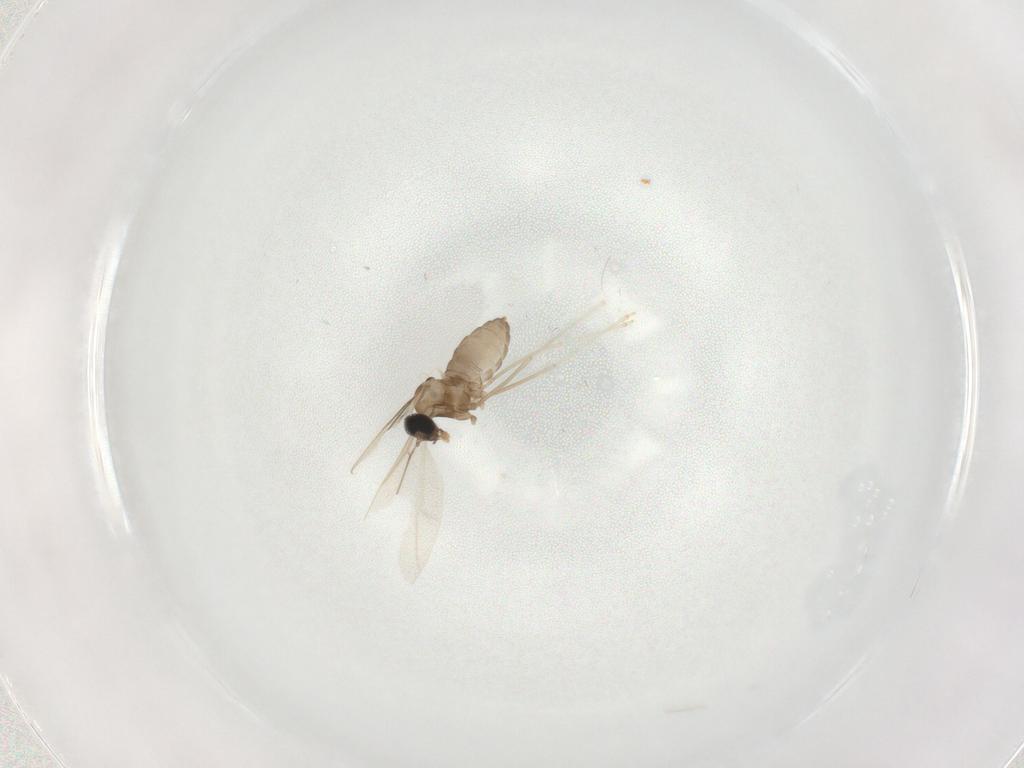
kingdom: Animalia
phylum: Arthropoda
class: Insecta
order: Diptera
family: Cecidomyiidae
